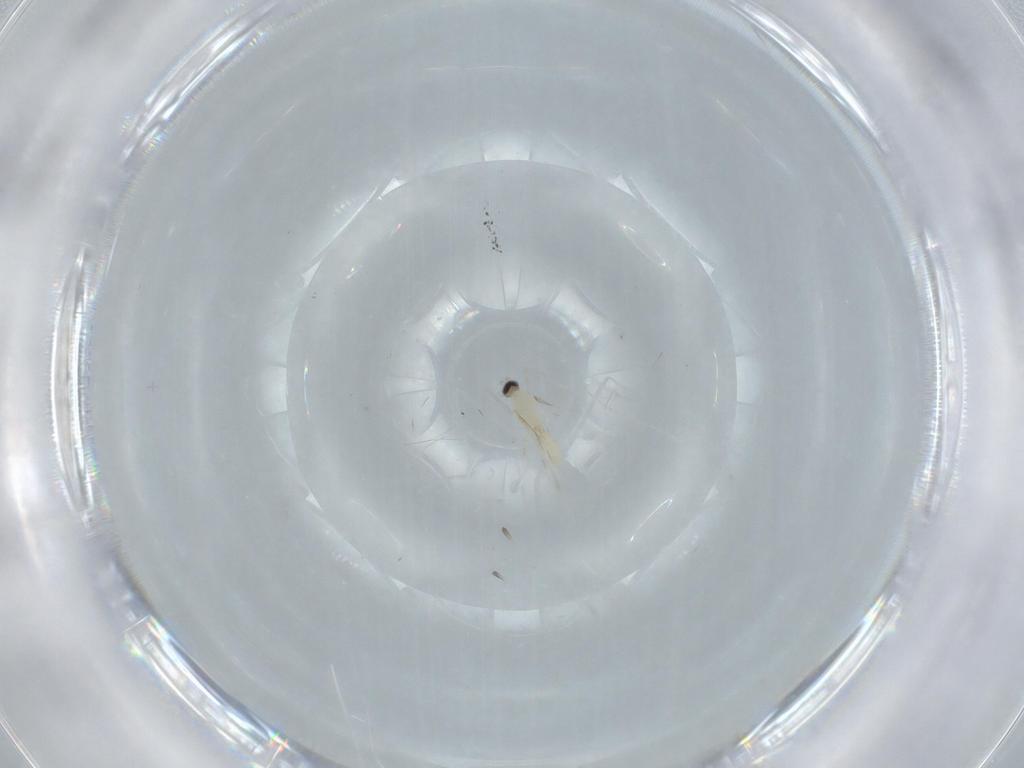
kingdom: Animalia
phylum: Arthropoda
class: Insecta
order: Diptera
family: Cecidomyiidae
